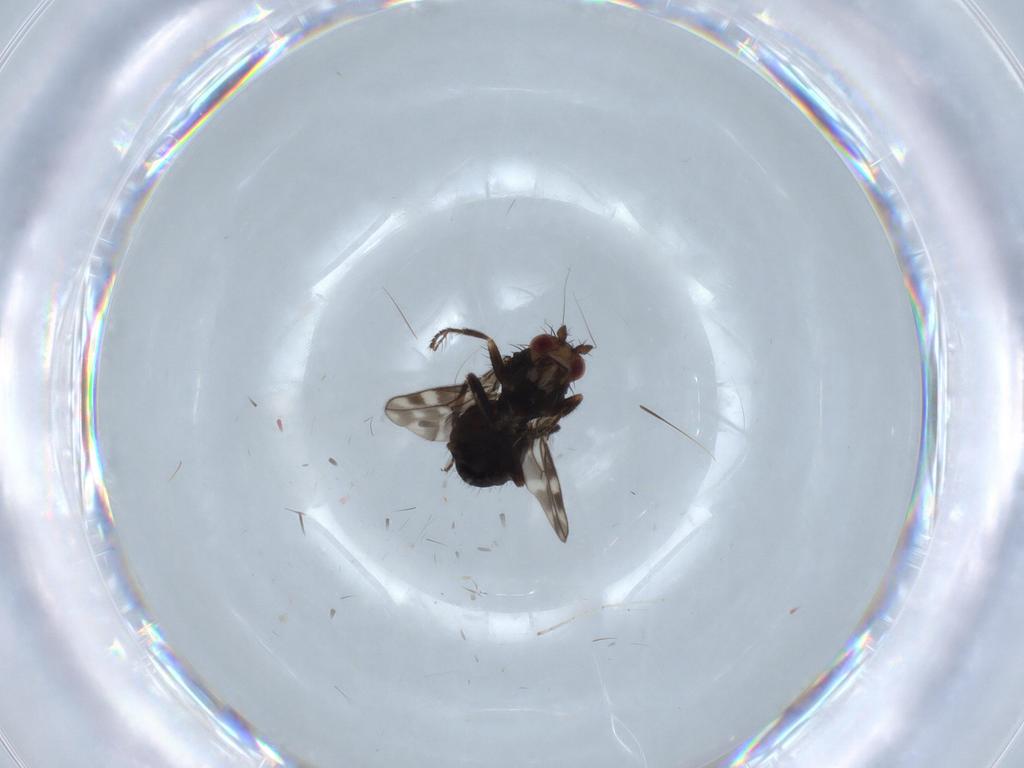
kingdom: Animalia
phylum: Arthropoda
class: Insecta
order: Diptera
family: Sphaeroceridae
